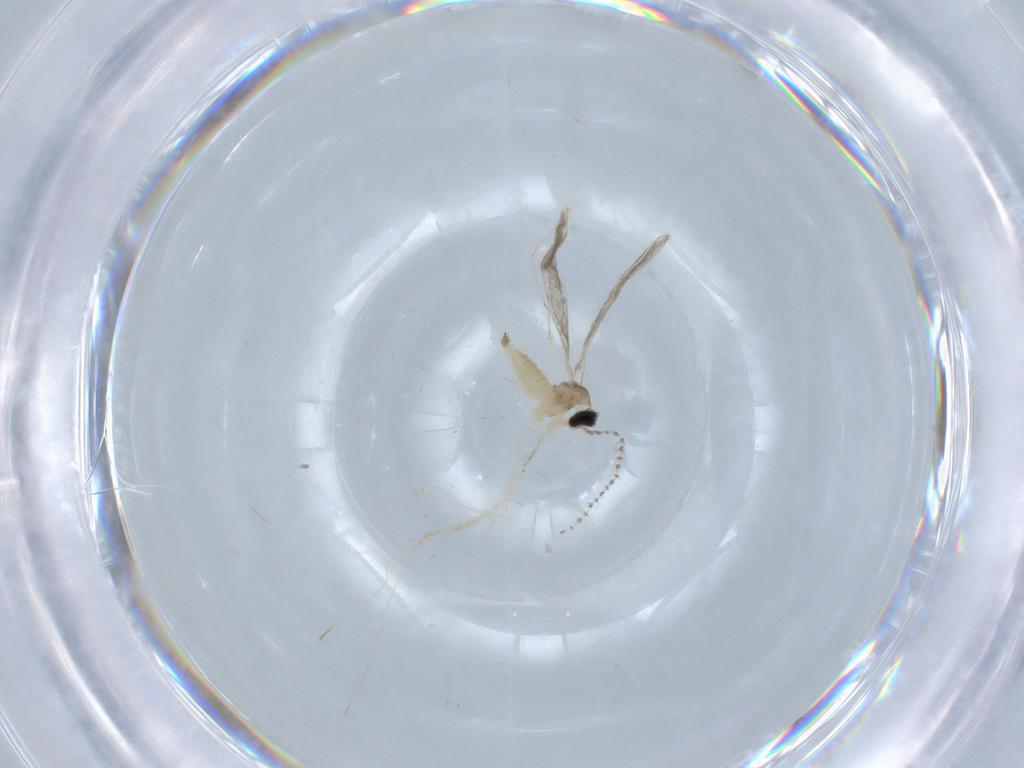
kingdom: Animalia
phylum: Arthropoda
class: Insecta
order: Diptera
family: Cecidomyiidae
